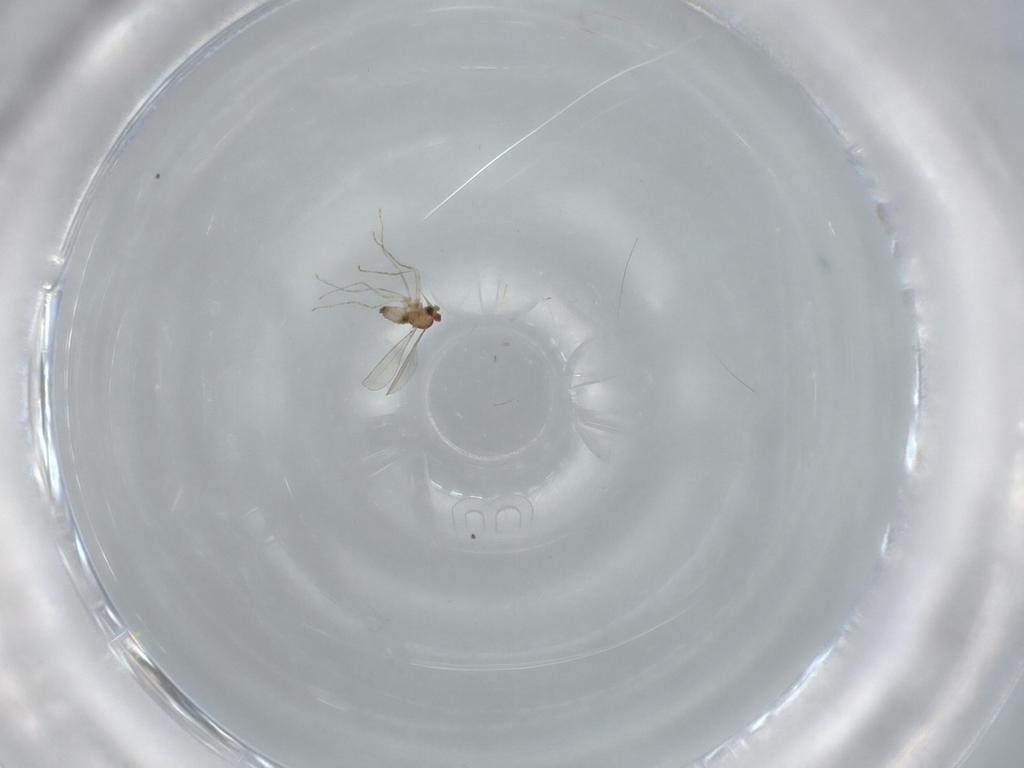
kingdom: Animalia
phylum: Arthropoda
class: Insecta
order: Diptera
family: Cecidomyiidae
